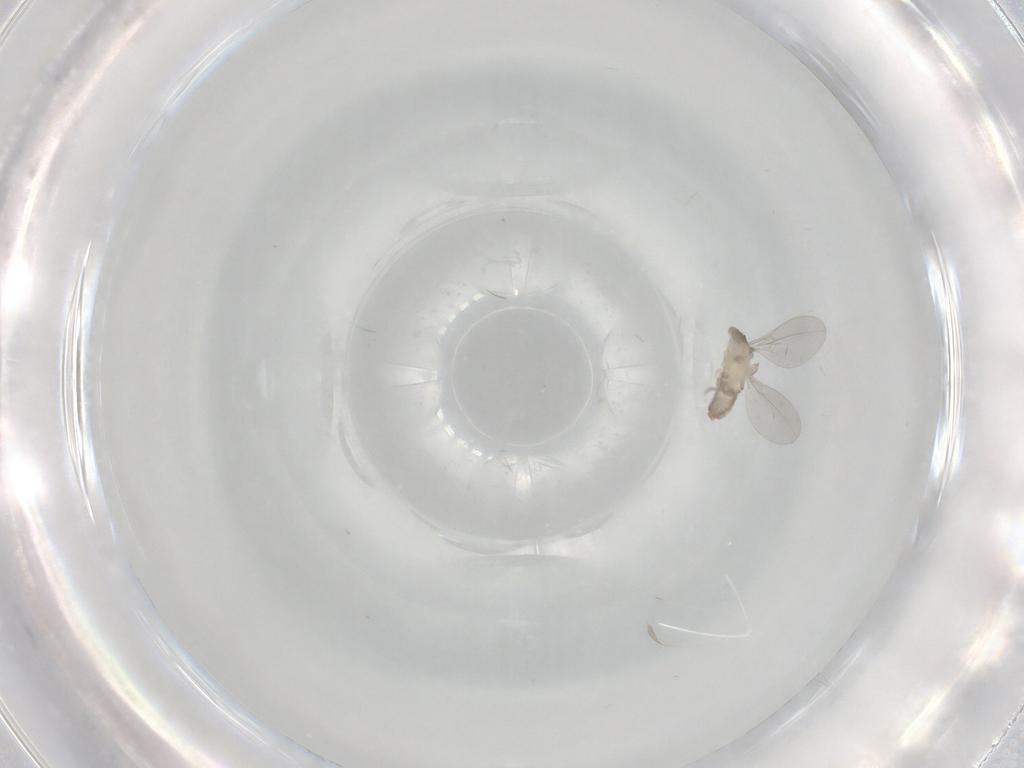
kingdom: Animalia
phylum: Arthropoda
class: Insecta
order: Diptera
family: Cecidomyiidae
